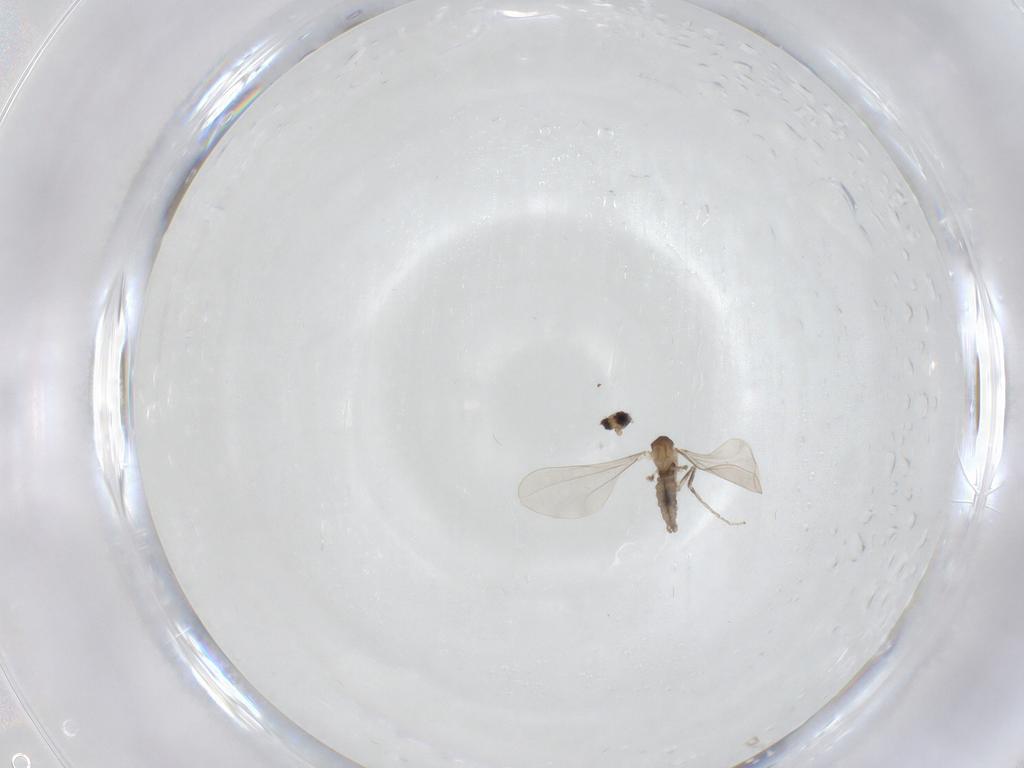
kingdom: Animalia
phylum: Arthropoda
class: Insecta
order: Diptera
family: Cecidomyiidae
